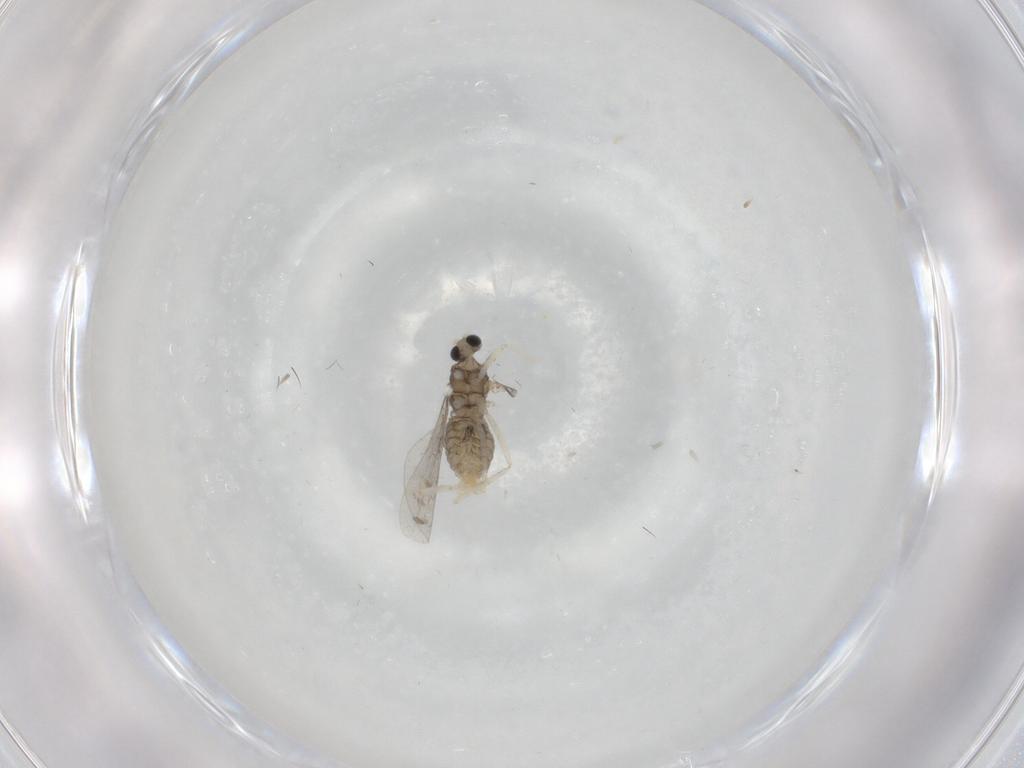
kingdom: Animalia
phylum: Arthropoda
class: Insecta
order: Diptera
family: Cecidomyiidae
